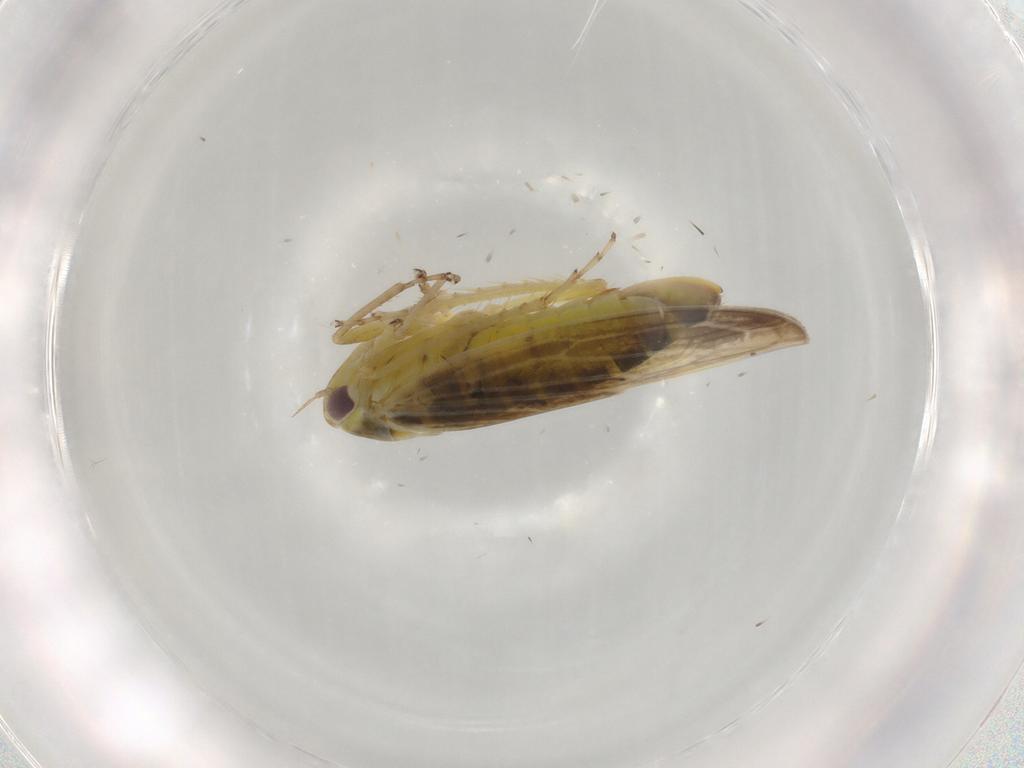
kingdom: Animalia
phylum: Arthropoda
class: Insecta
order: Hemiptera
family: Cicadellidae
